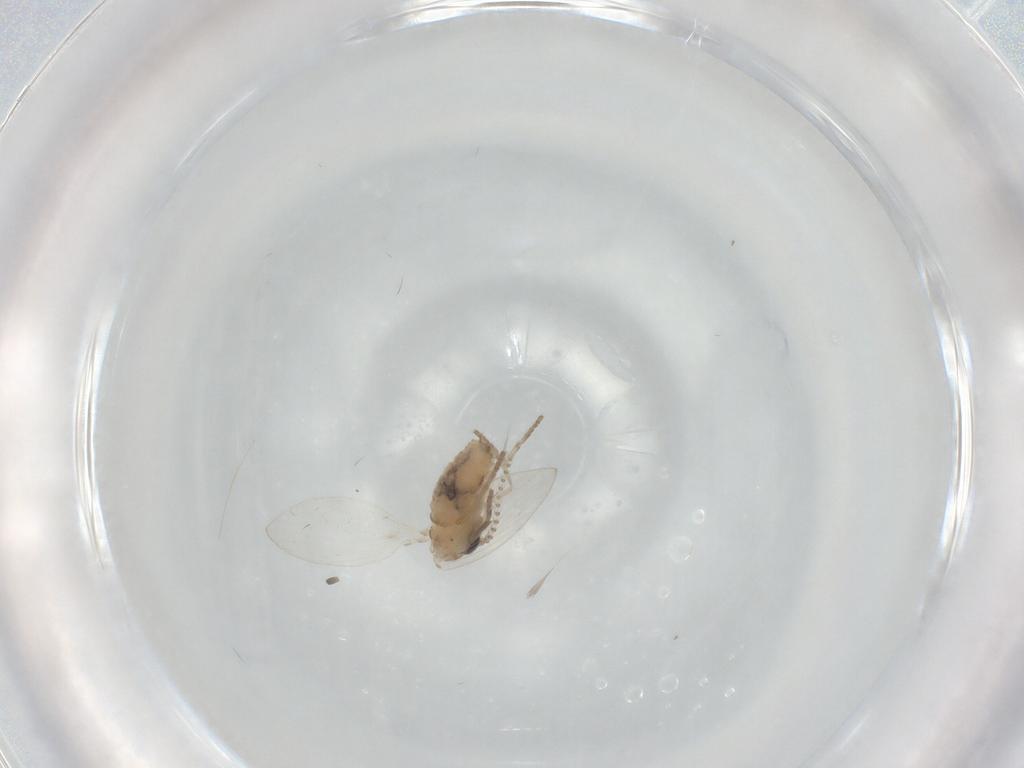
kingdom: Animalia
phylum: Arthropoda
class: Insecta
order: Diptera
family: Psychodidae
